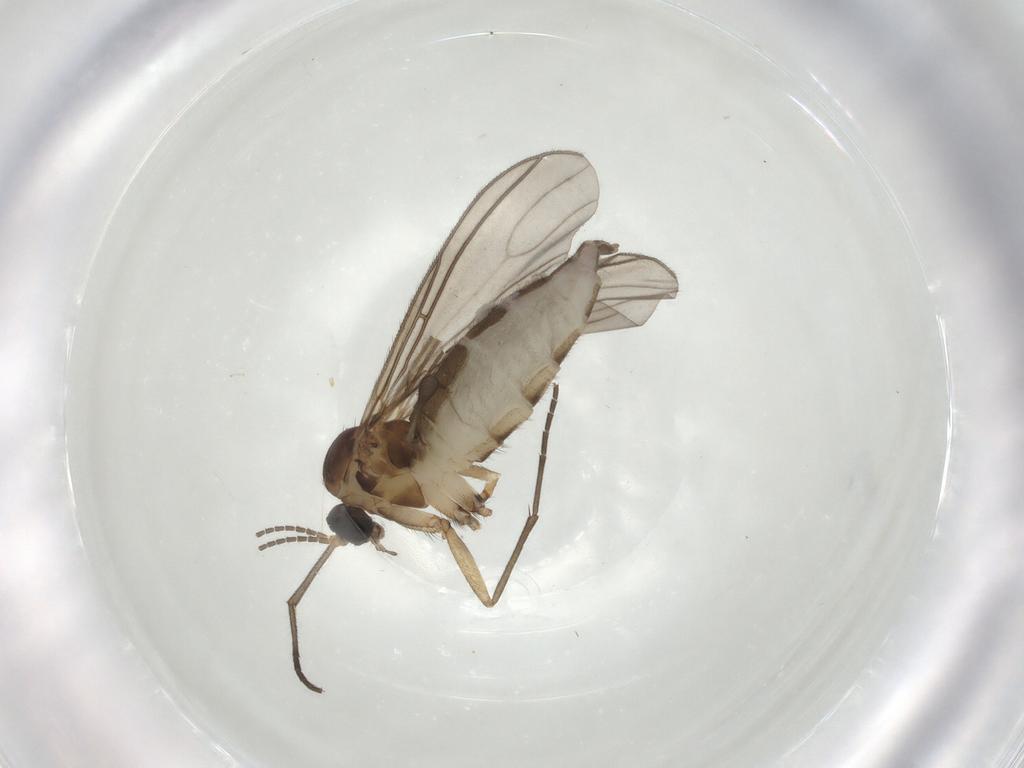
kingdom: Animalia
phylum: Arthropoda
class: Insecta
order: Diptera
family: Sciaridae
